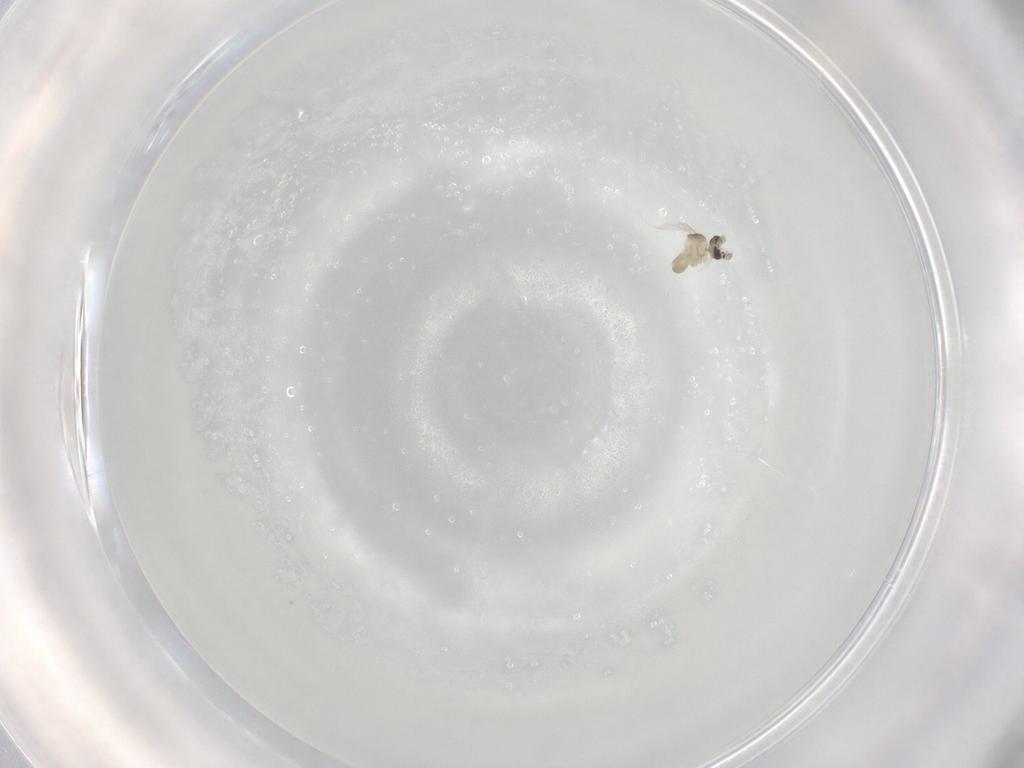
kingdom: Animalia
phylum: Arthropoda
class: Insecta
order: Diptera
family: Cecidomyiidae
